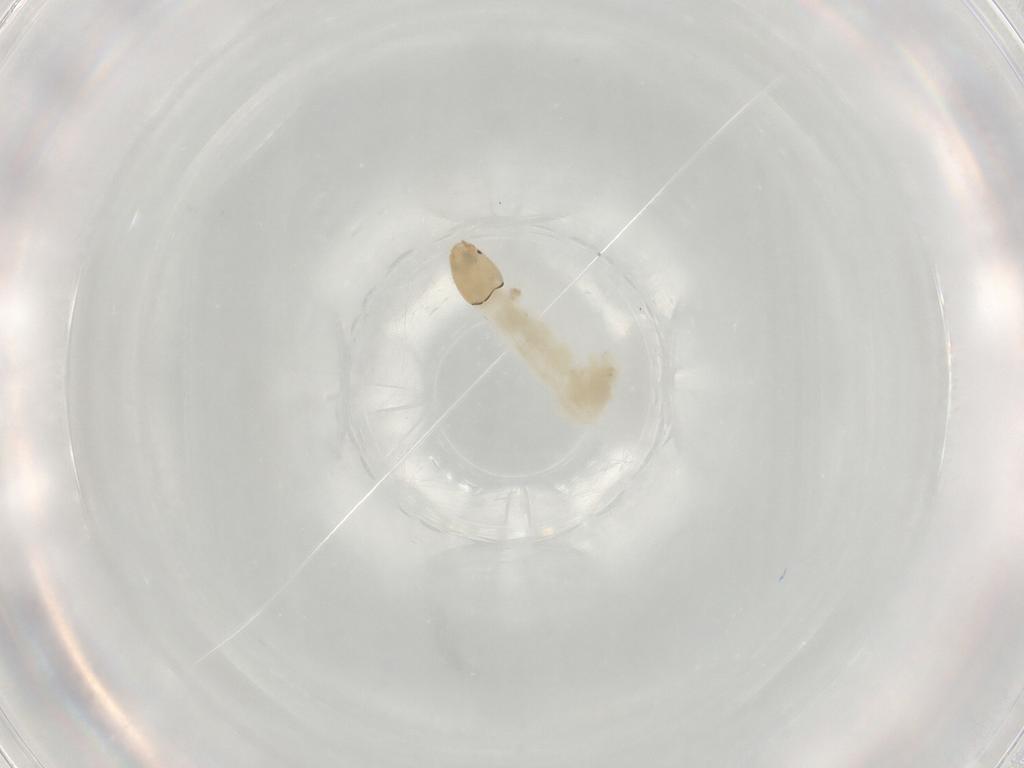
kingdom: Animalia
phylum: Arthropoda
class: Insecta
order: Diptera
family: Chironomidae
